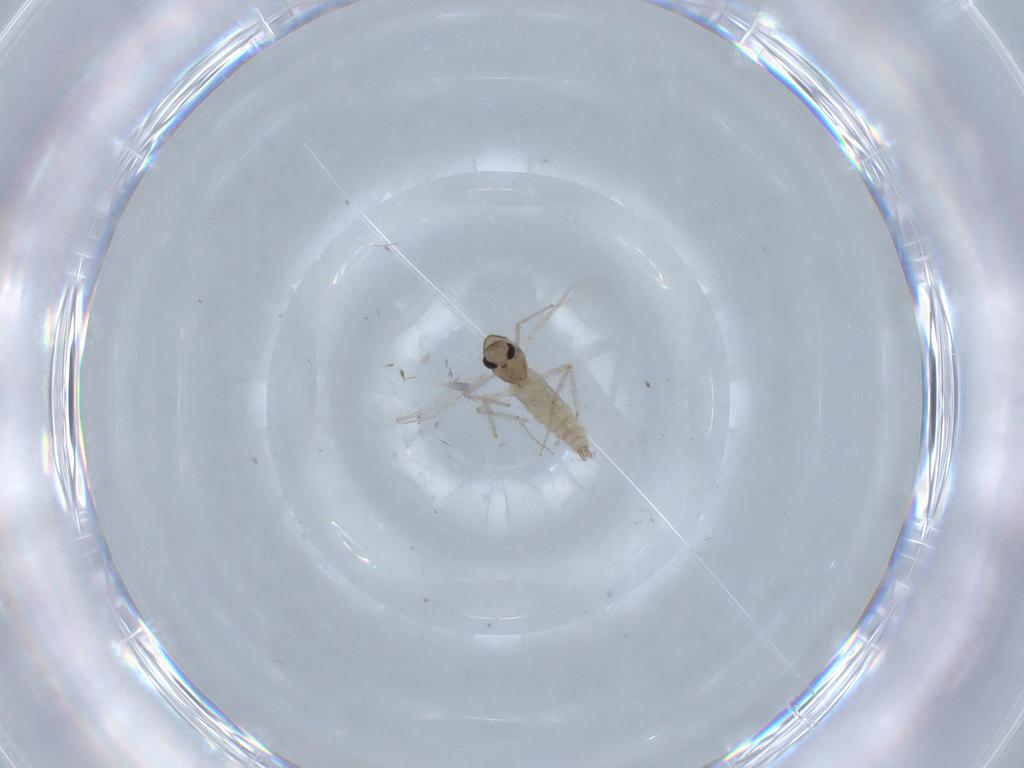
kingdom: Animalia
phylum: Arthropoda
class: Insecta
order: Diptera
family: Chironomidae
